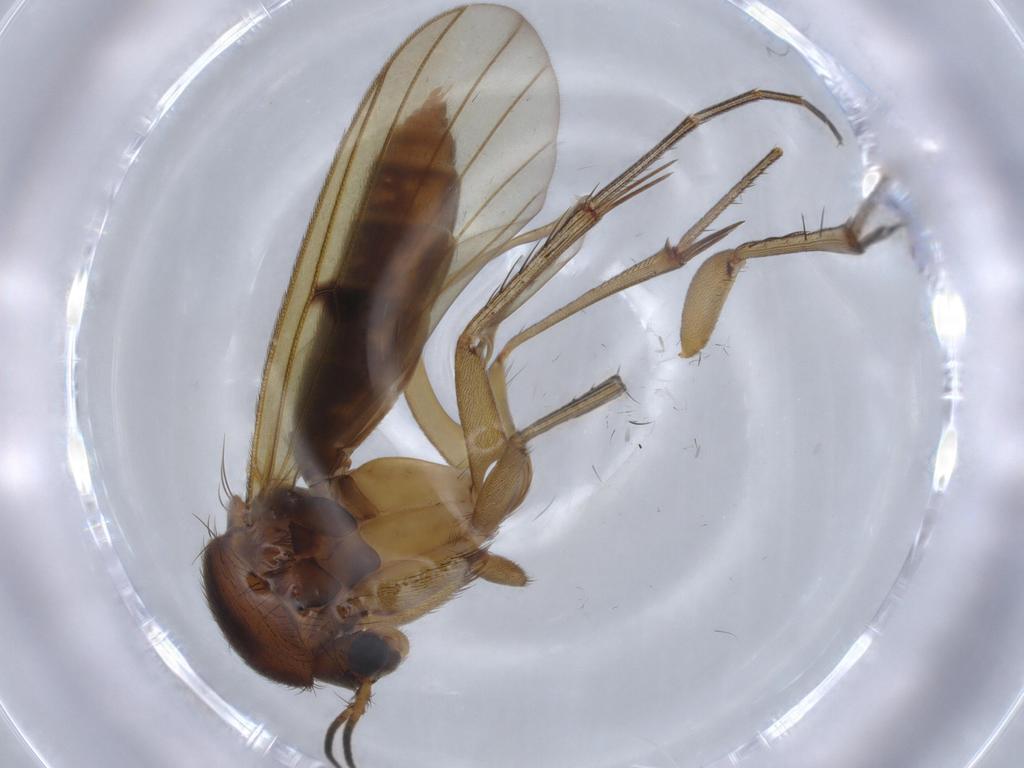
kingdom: Animalia
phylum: Arthropoda
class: Insecta
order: Diptera
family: Mycetophilidae
